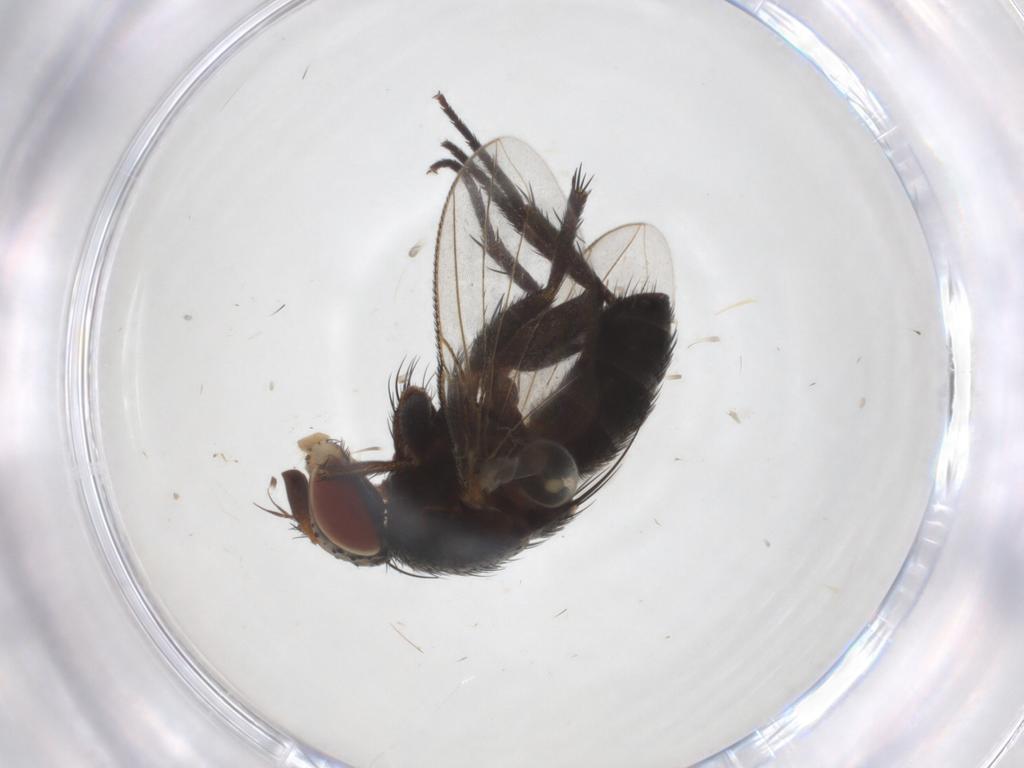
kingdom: Animalia
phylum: Arthropoda
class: Insecta
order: Diptera
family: Tachinidae
